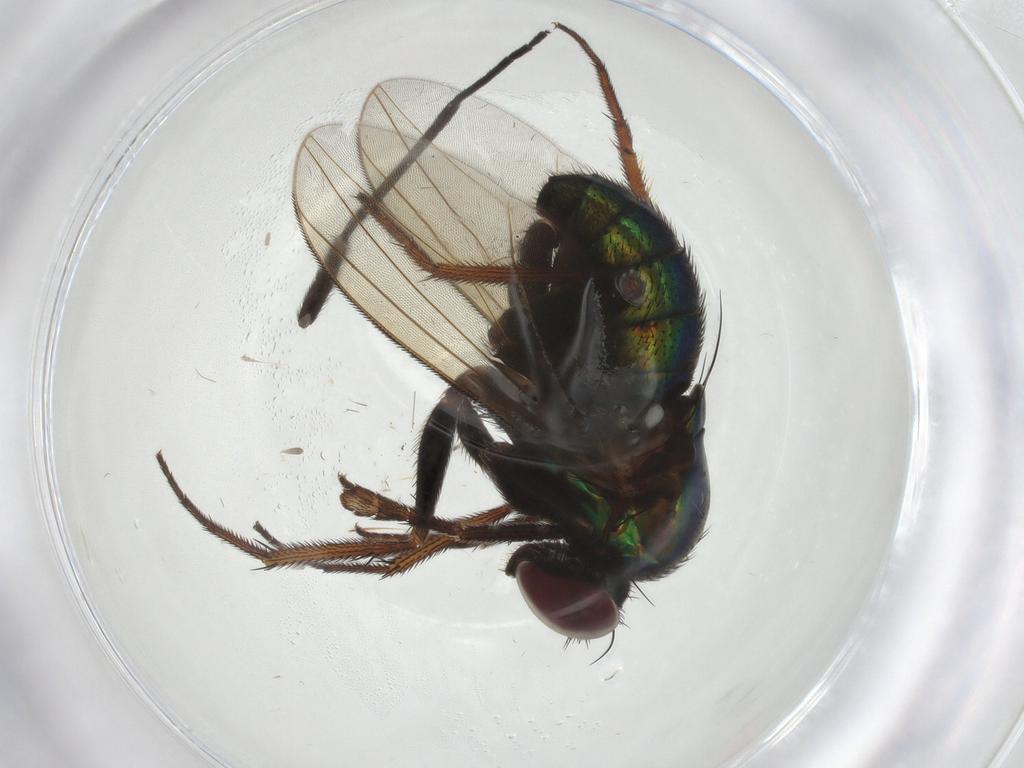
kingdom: Animalia
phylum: Arthropoda
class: Insecta
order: Diptera
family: Dolichopodidae
